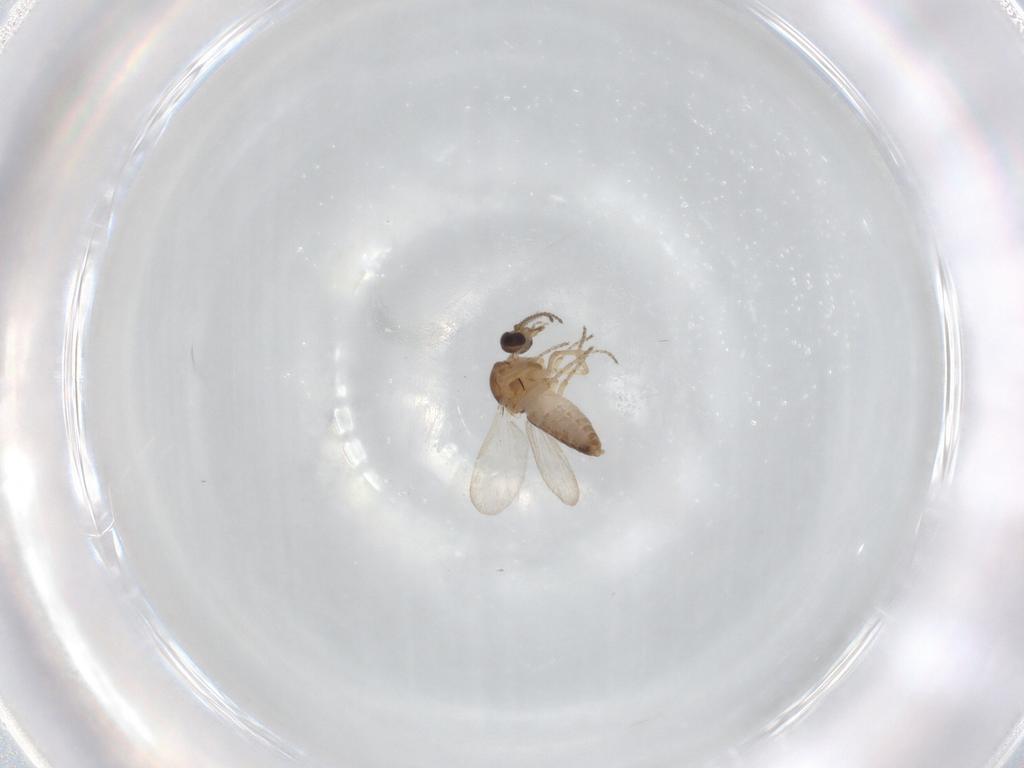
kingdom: Animalia
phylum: Arthropoda
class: Insecta
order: Diptera
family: Ceratopogonidae
